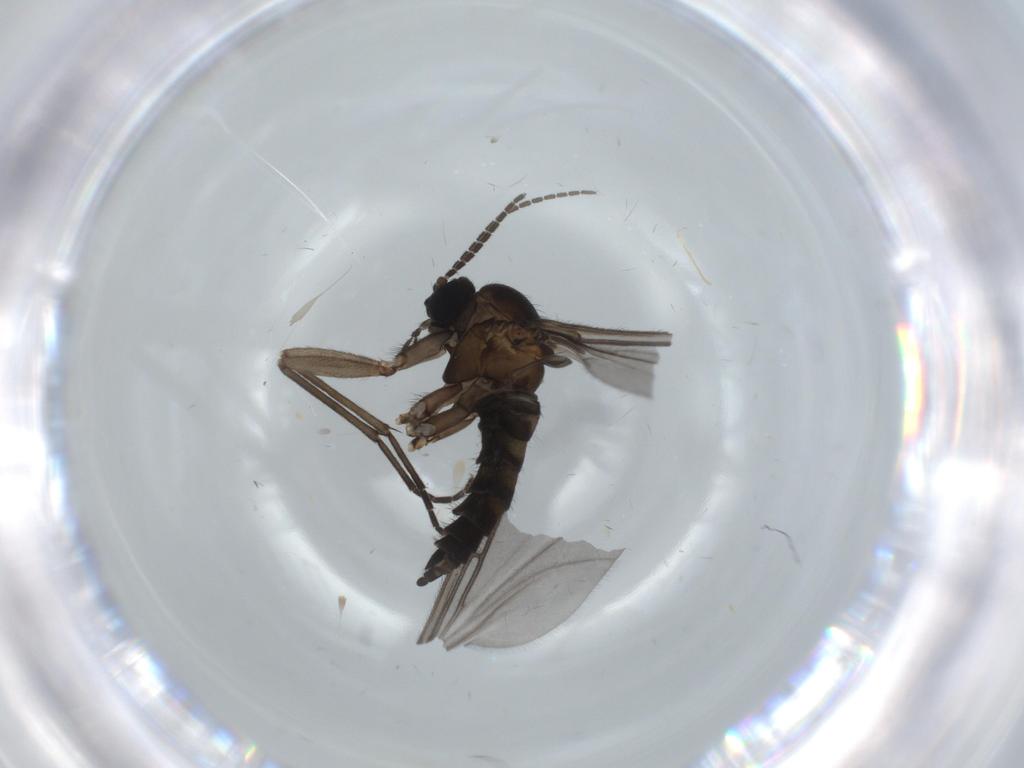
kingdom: Animalia
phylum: Arthropoda
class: Insecta
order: Diptera
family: Sciaridae
